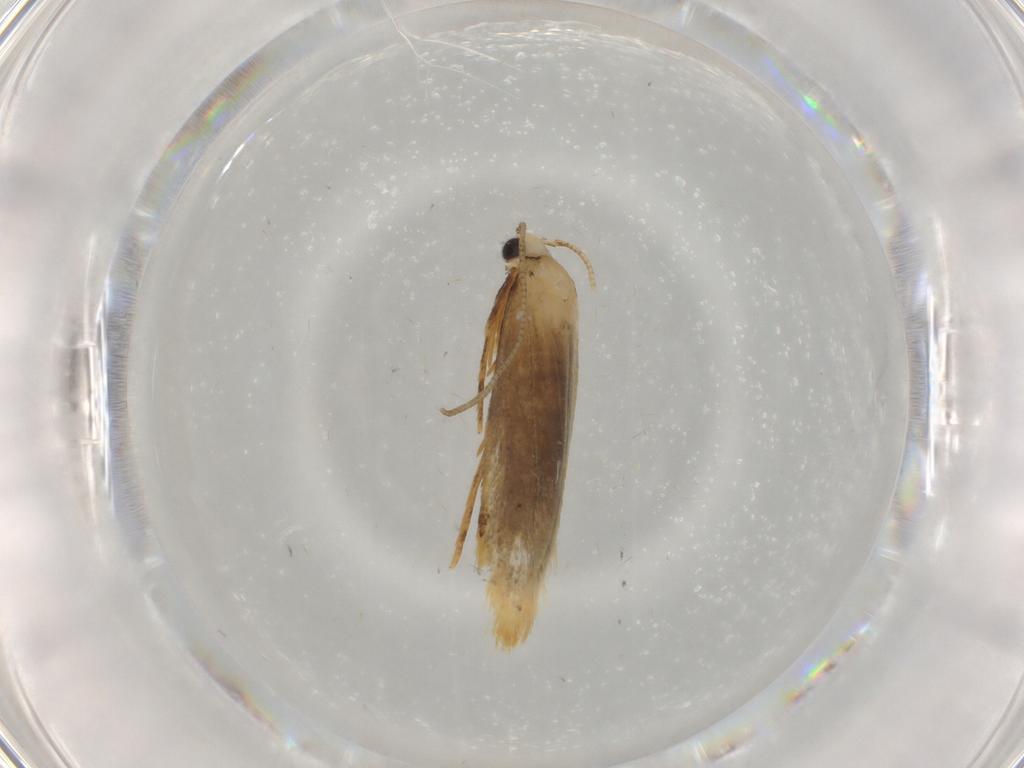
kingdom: Animalia
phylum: Arthropoda
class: Insecta
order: Lepidoptera
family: Tineidae
